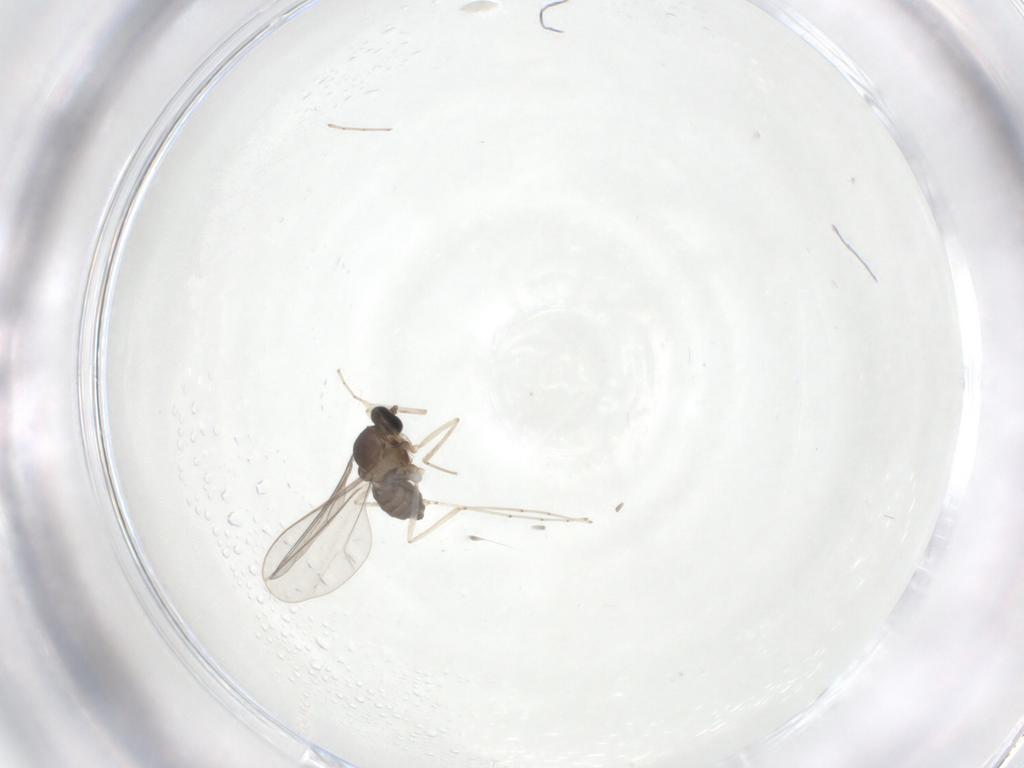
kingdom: Animalia
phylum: Arthropoda
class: Insecta
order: Diptera
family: Cecidomyiidae
